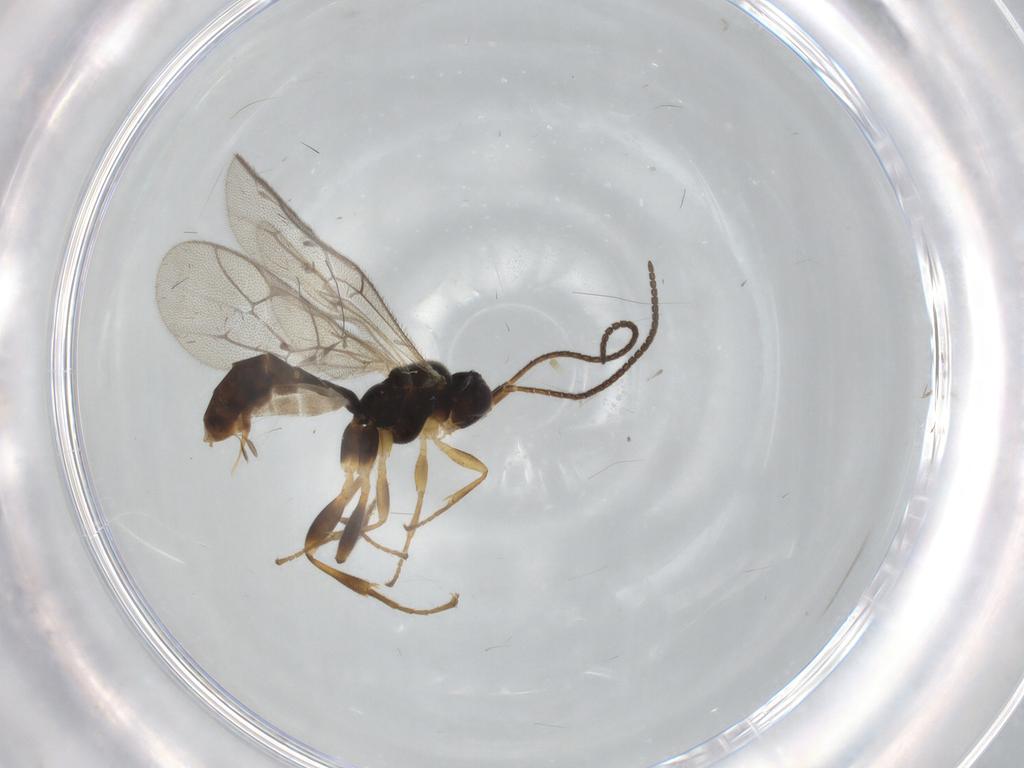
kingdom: Animalia
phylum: Arthropoda
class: Insecta
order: Hymenoptera
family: Ichneumonidae
